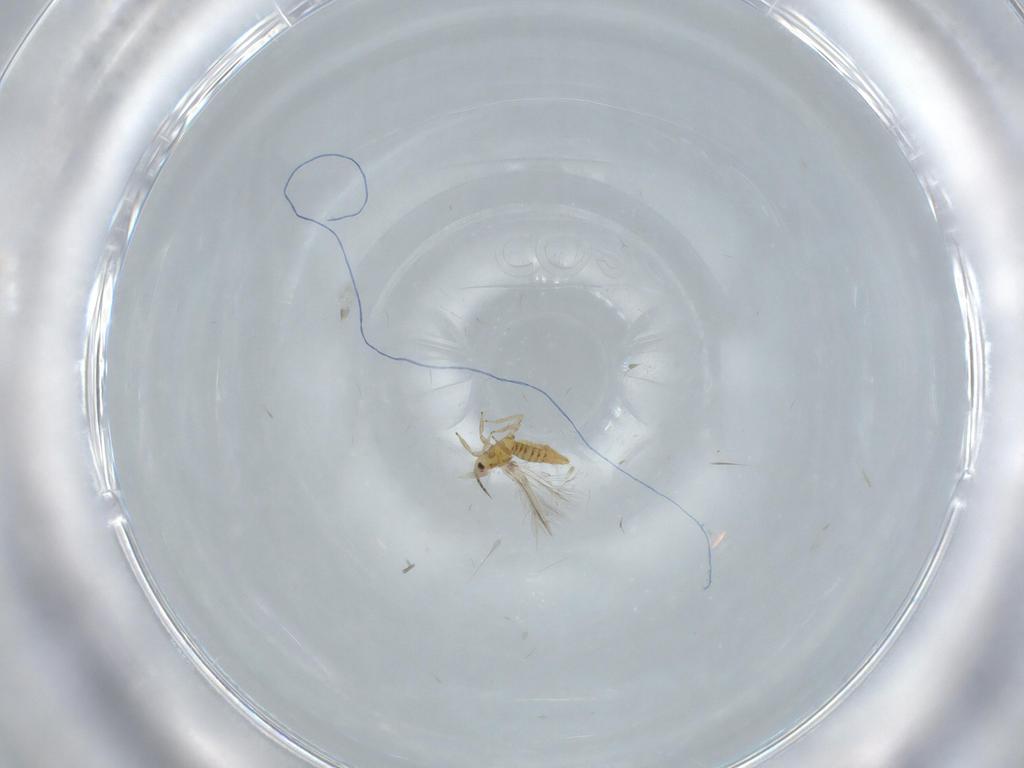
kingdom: Animalia
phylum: Arthropoda
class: Insecta
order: Thysanoptera
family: Thripidae
